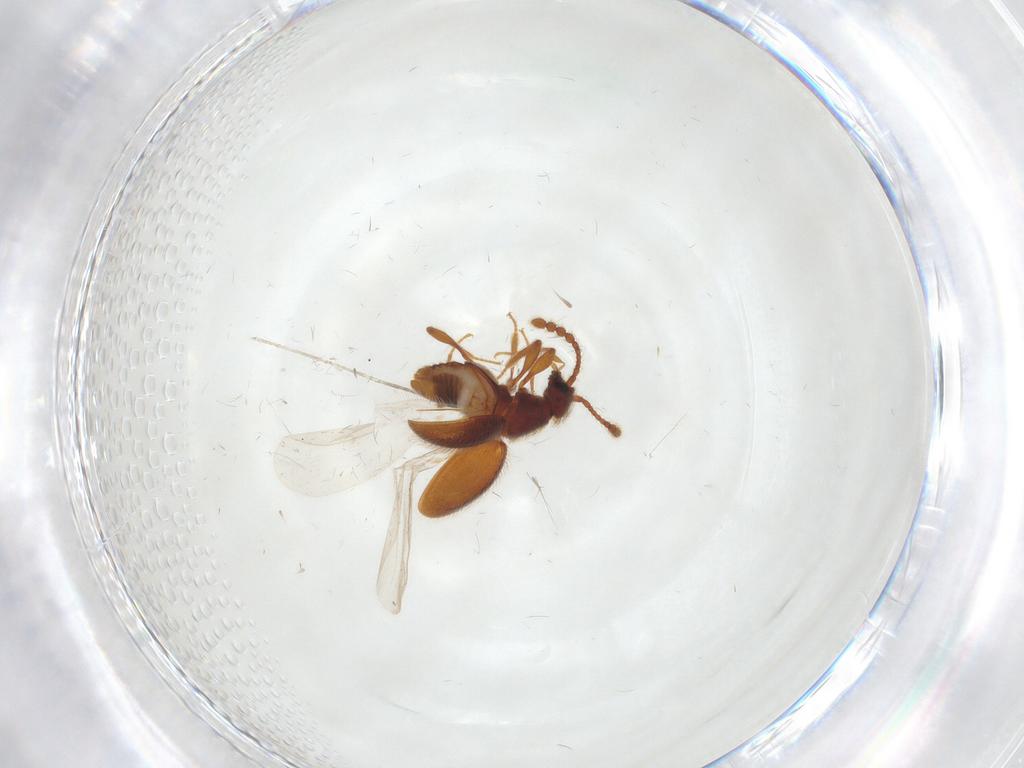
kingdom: Animalia
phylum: Arthropoda
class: Insecta
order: Coleoptera
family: Staphylinidae
